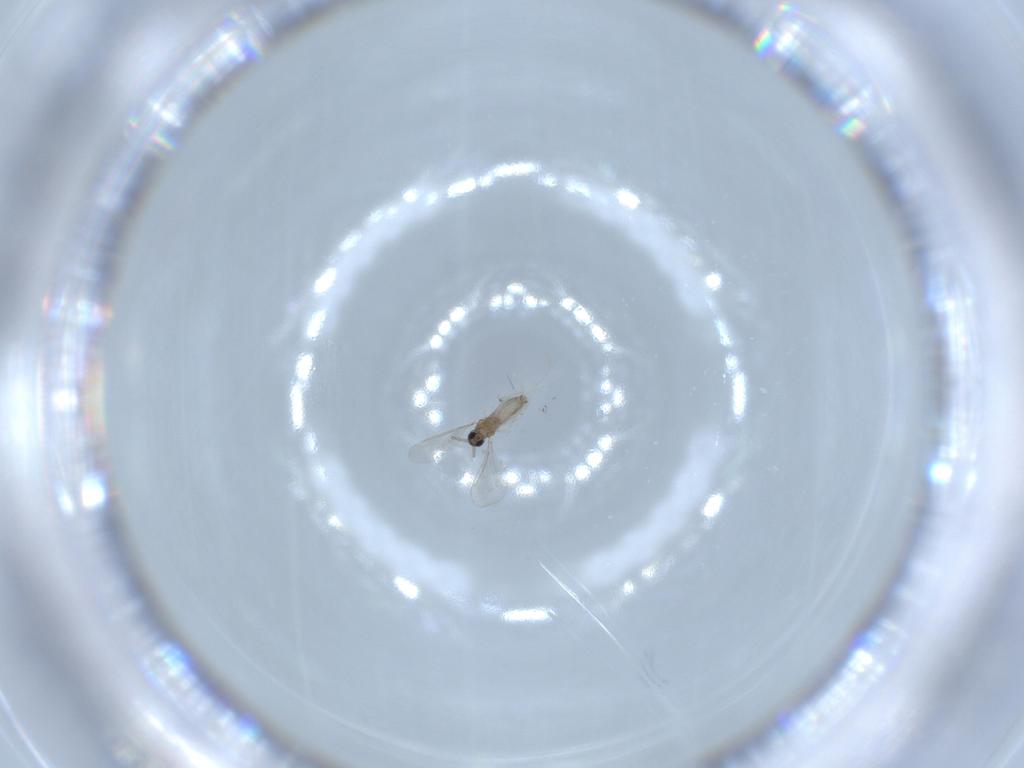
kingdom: Animalia
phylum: Arthropoda
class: Insecta
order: Diptera
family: Cecidomyiidae
